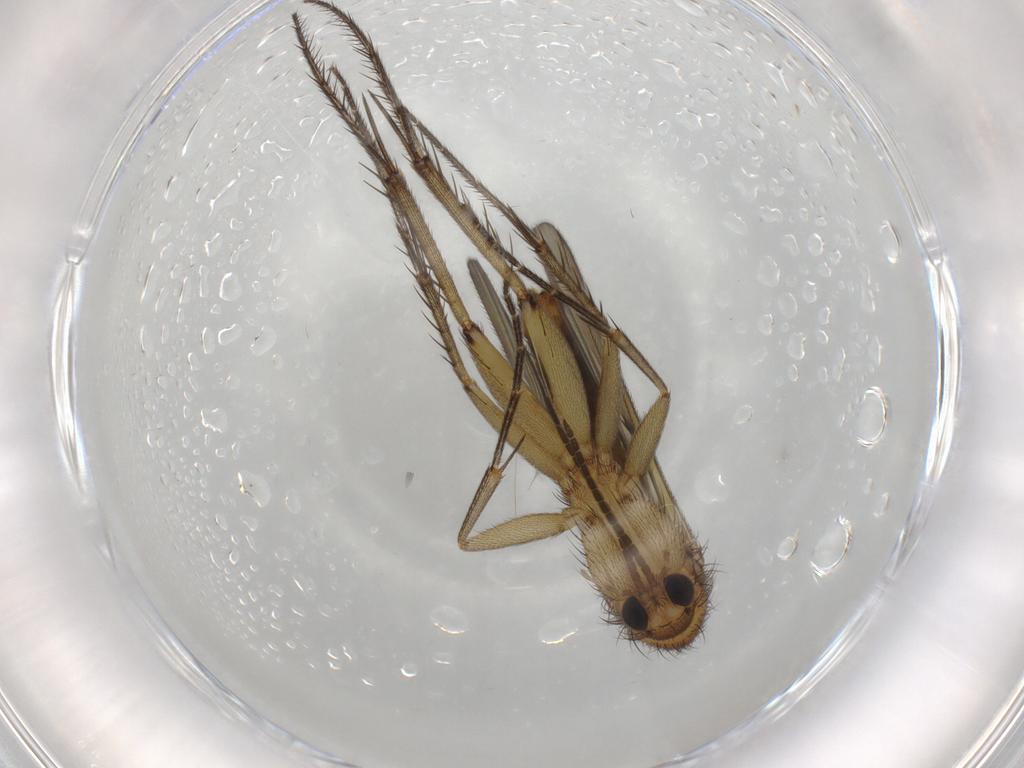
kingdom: Animalia
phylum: Arthropoda
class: Insecta
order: Diptera
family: Mycetophilidae
